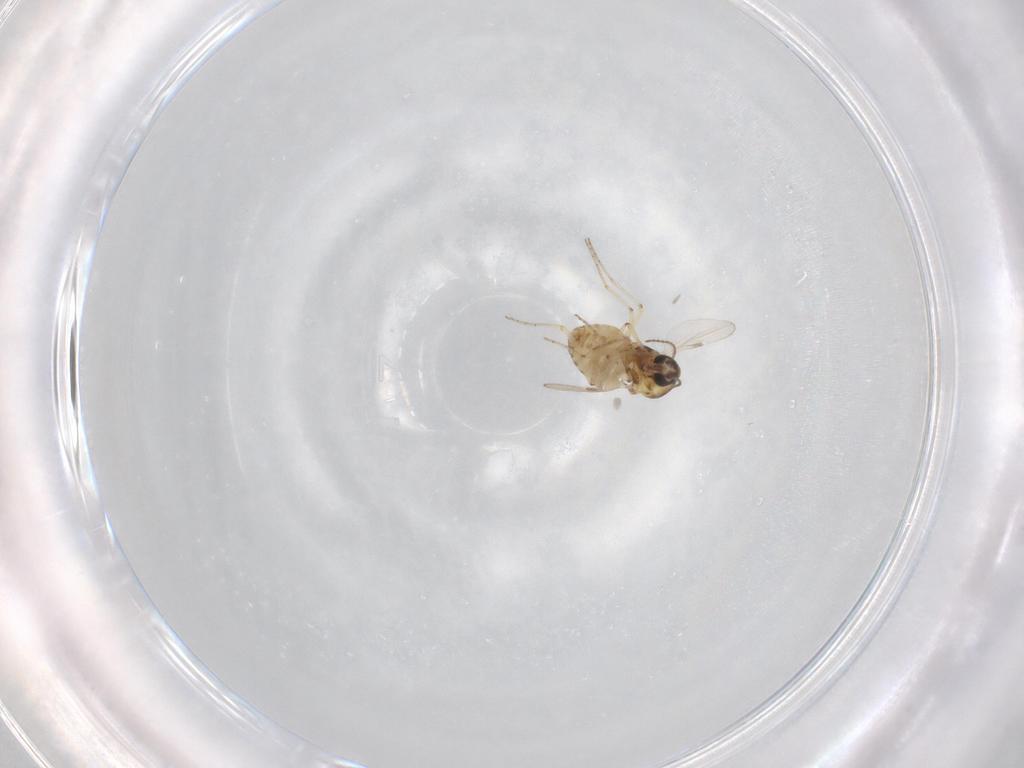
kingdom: Animalia
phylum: Arthropoda
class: Insecta
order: Diptera
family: Ceratopogonidae
